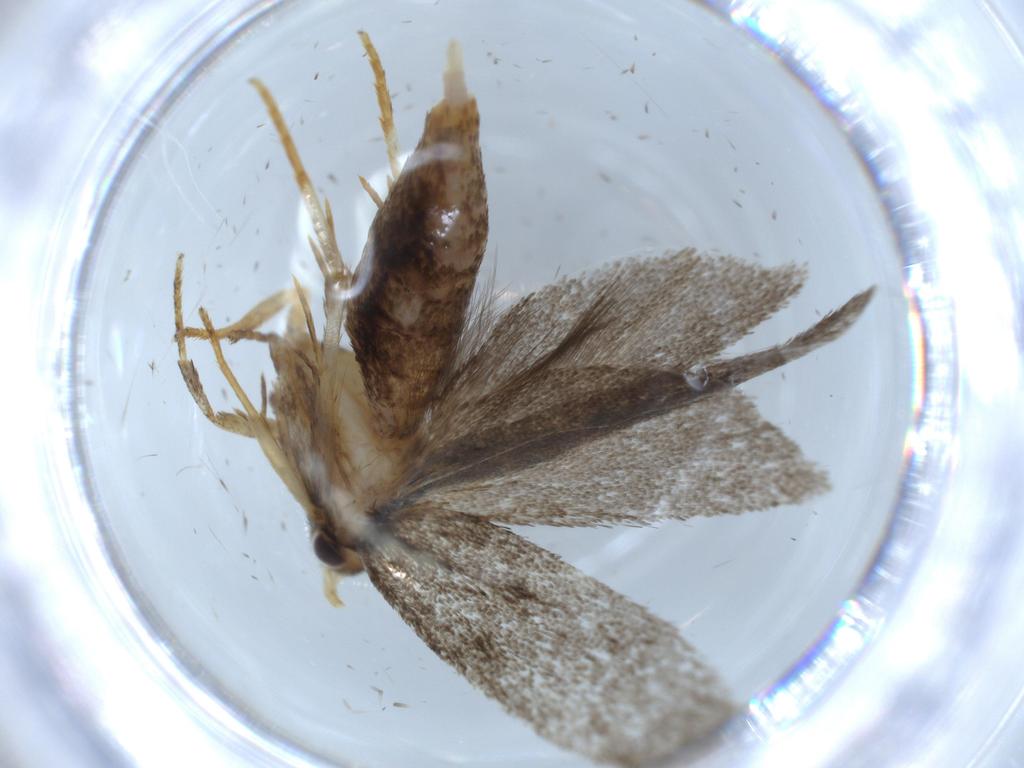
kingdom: Animalia
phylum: Arthropoda
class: Insecta
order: Lepidoptera
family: Lecithoceridae
